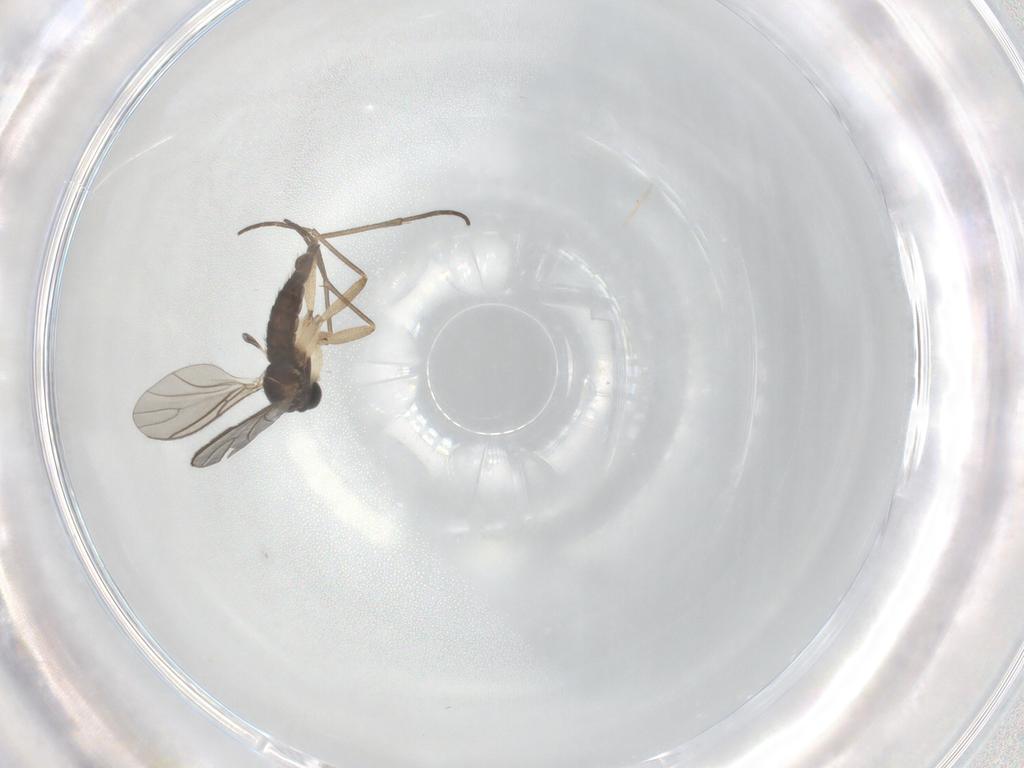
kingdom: Animalia
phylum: Arthropoda
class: Insecta
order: Diptera
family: Sciaridae
